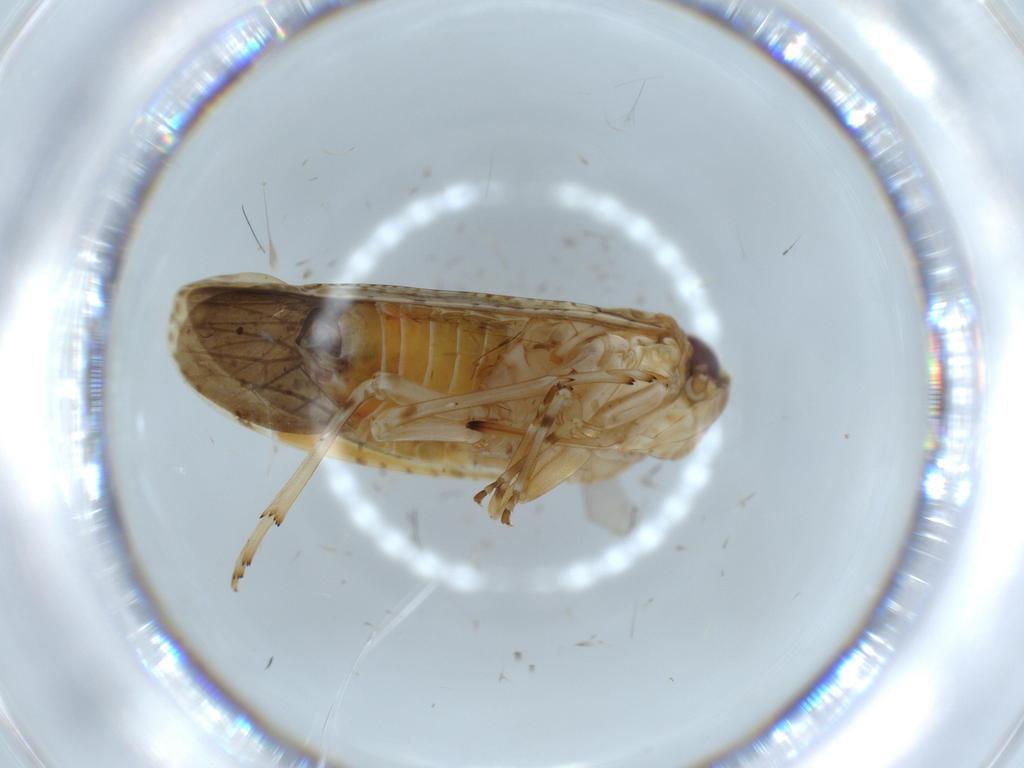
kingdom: Animalia
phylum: Arthropoda
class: Insecta
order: Hemiptera
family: Achilidae
